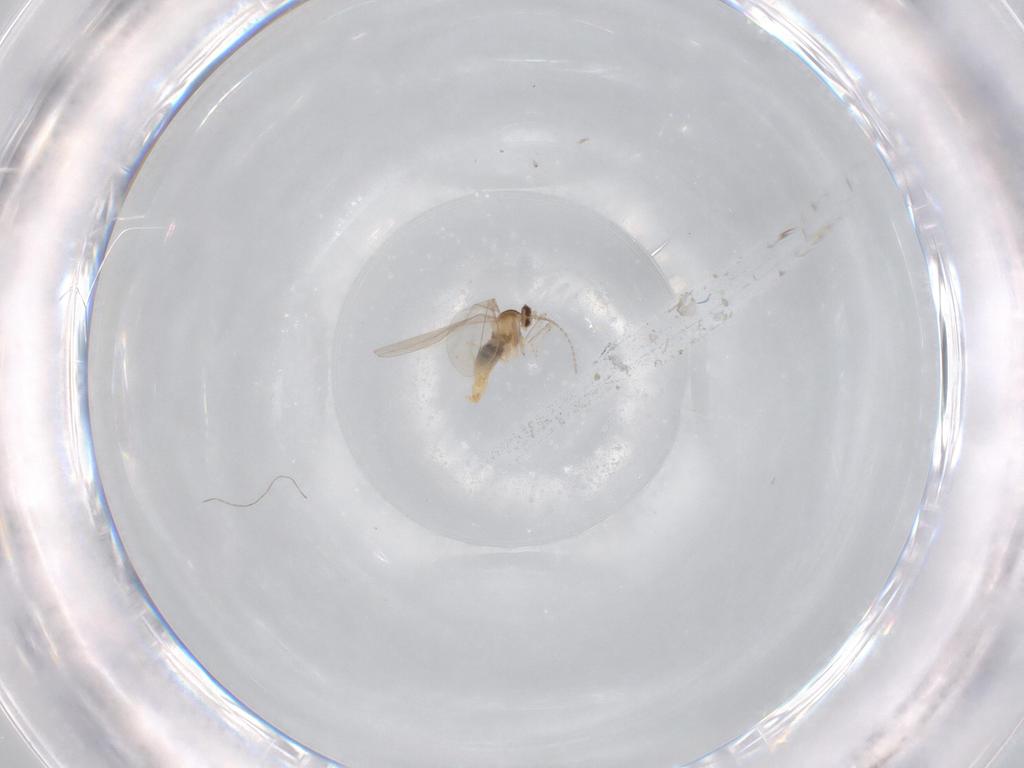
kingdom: Animalia
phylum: Arthropoda
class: Insecta
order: Diptera
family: Cecidomyiidae
